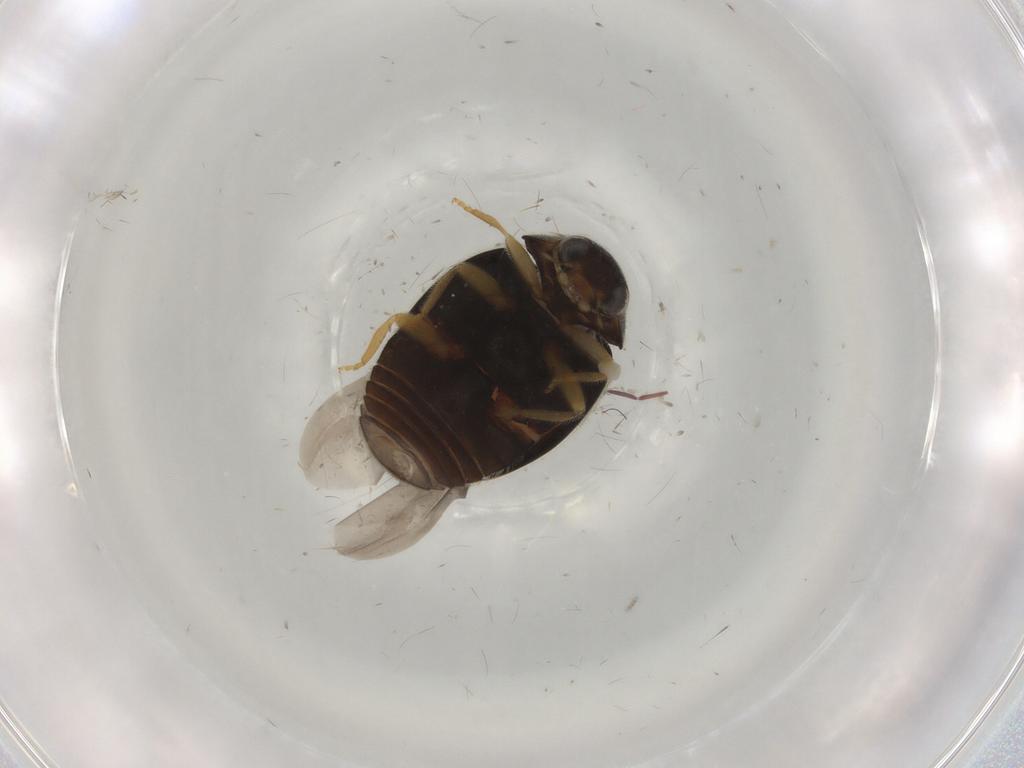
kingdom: Animalia
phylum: Arthropoda
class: Insecta
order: Coleoptera
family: Coccinellidae
